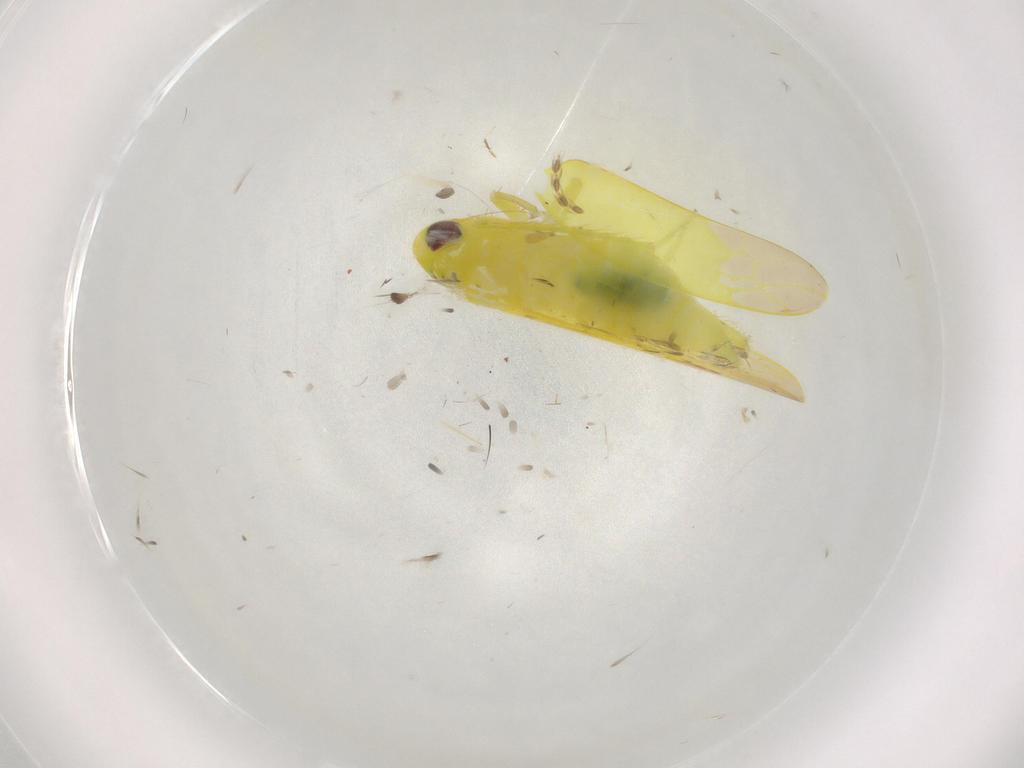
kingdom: Animalia
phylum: Arthropoda
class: Insecta
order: Hemiptera
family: Cicadellidae
